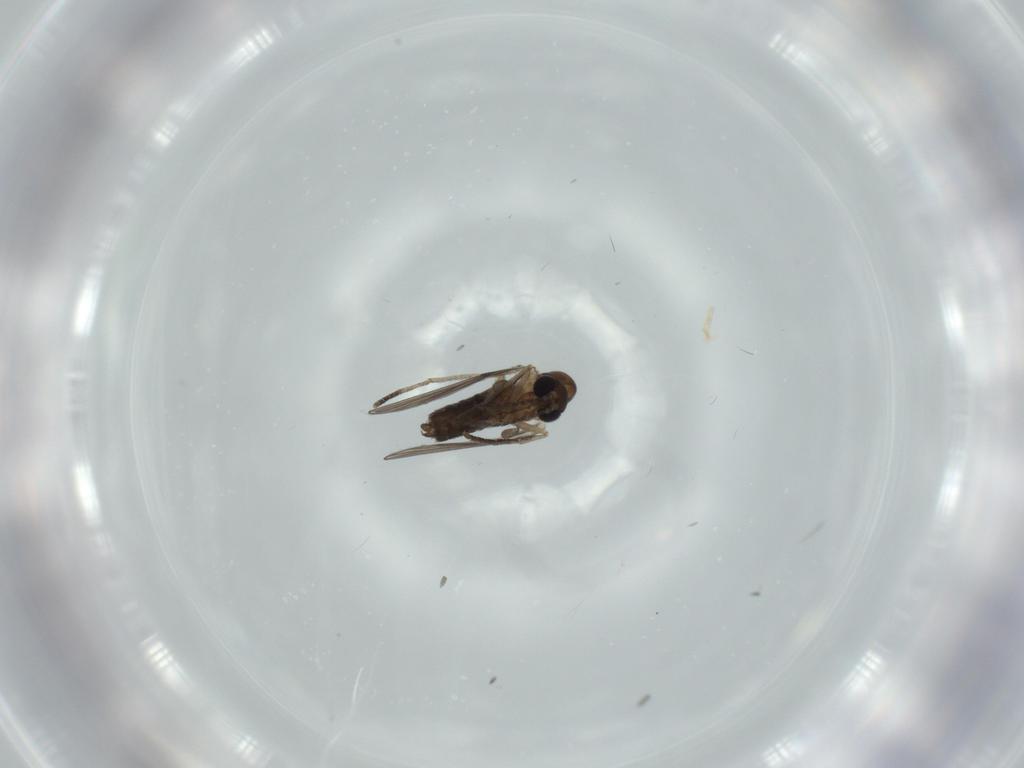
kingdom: Animalia
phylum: Arthropoda
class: Insecta
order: Diptera
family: Psychodidae
